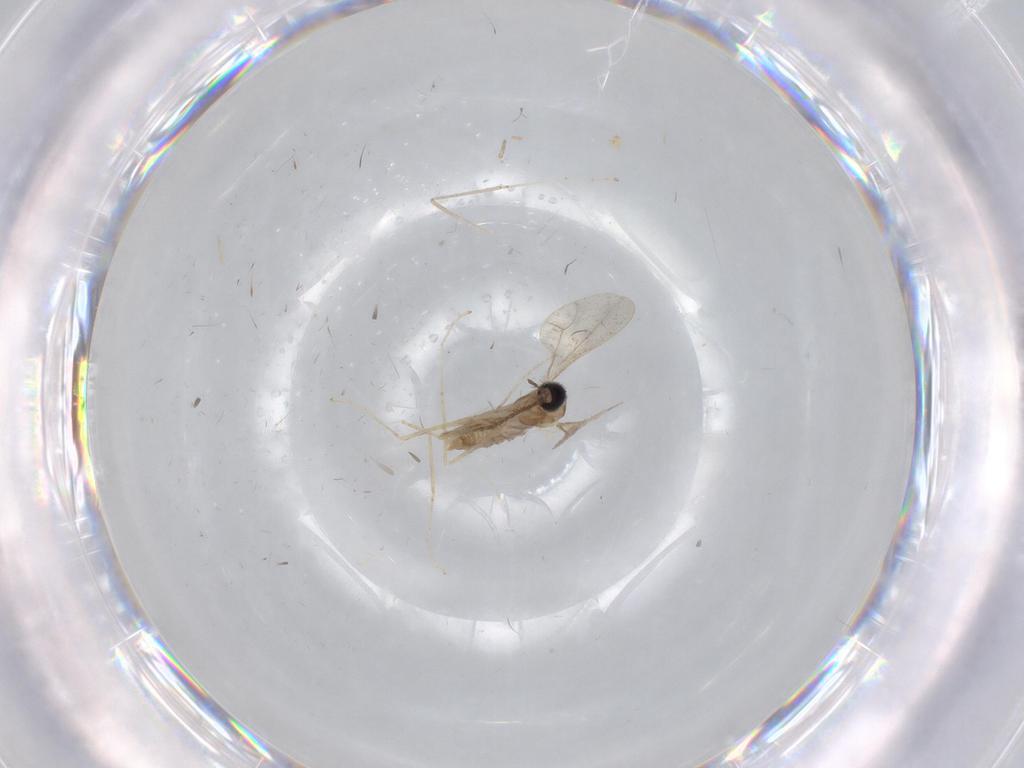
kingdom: Animalia
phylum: Arthropoda
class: Insecta
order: Diptera
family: Cecidomyiidae
